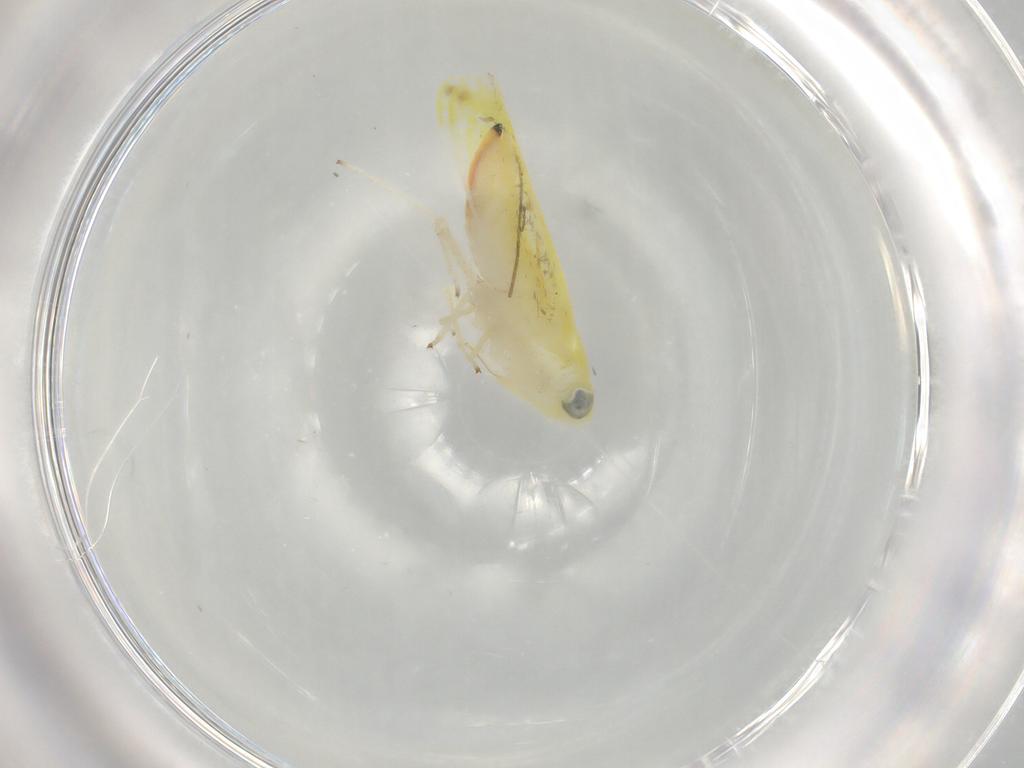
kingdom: Animalia
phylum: Arthropoda
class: Insecta
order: Hemiptera
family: Cicadellidae
